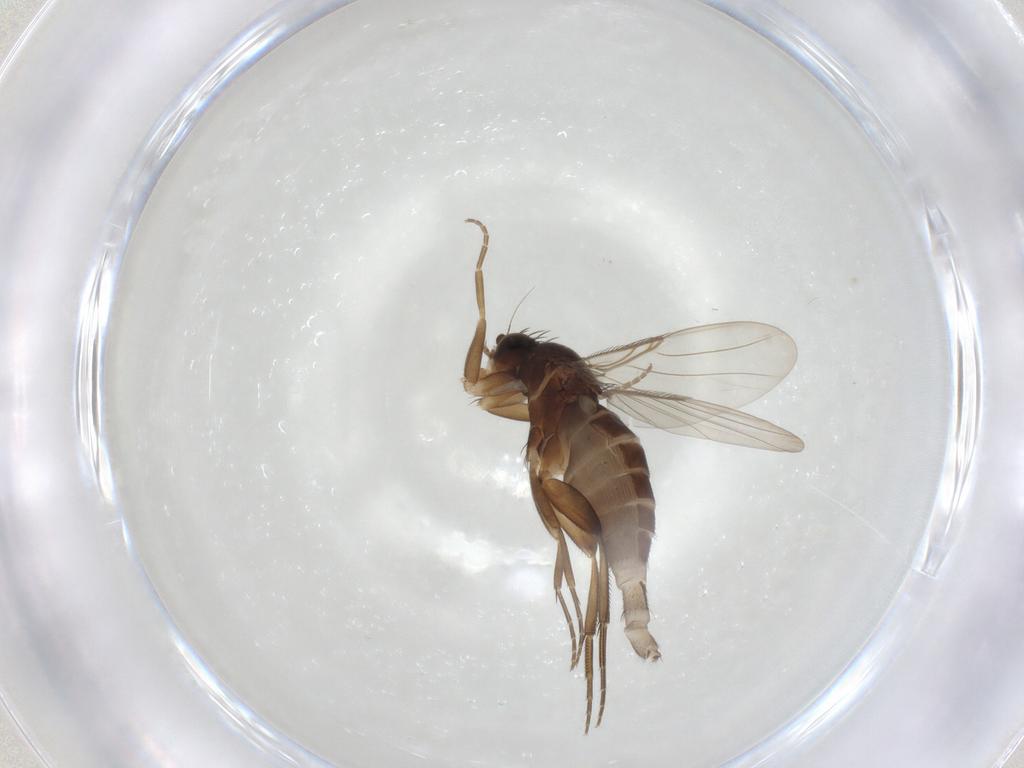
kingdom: Animalia
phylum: Arthropoda
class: Insecta
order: Diptera
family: Phoridae
